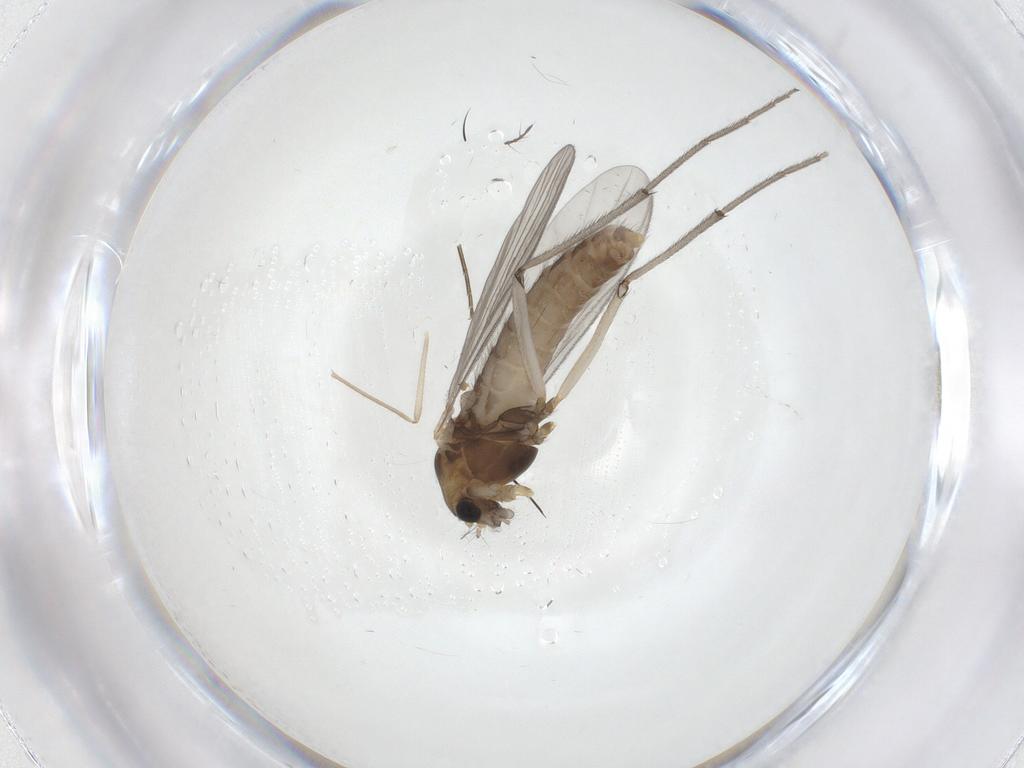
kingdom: Animalia
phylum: Arthropoda
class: Insecta
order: Diptera
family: Chironomidae
